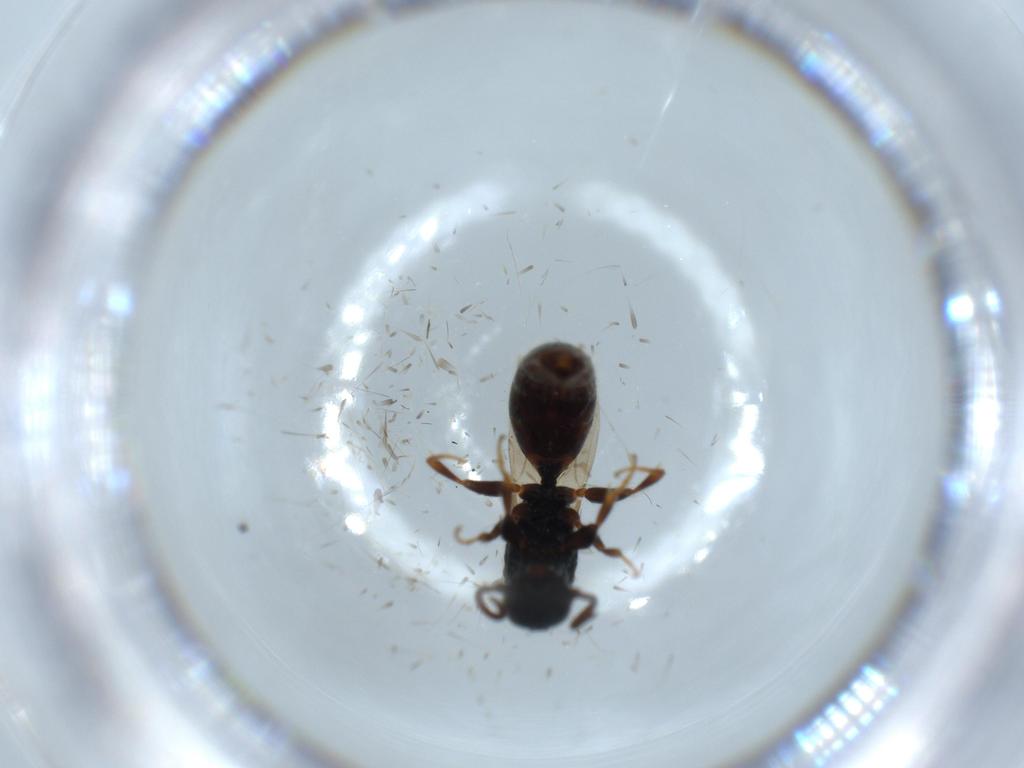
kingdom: Animalia
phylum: Arthropoda
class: Insecta
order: Hymenoptera
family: Bethylidae
